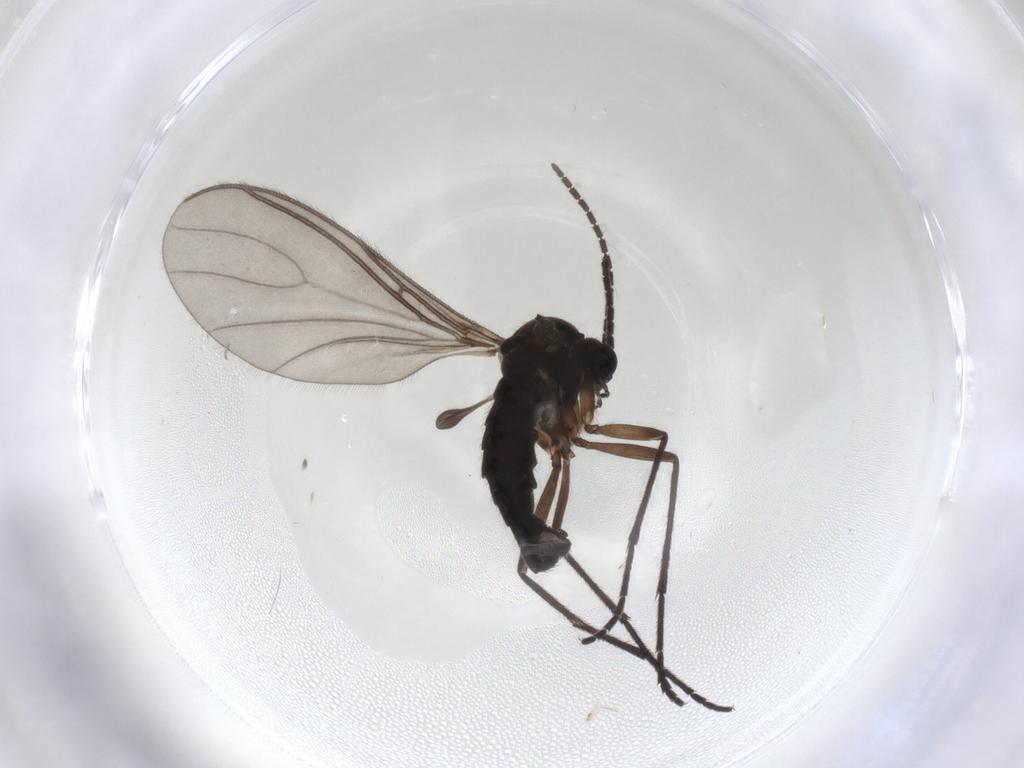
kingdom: Animalia
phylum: Arthropoda
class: Insecta
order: Diptera
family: Sciaridae
